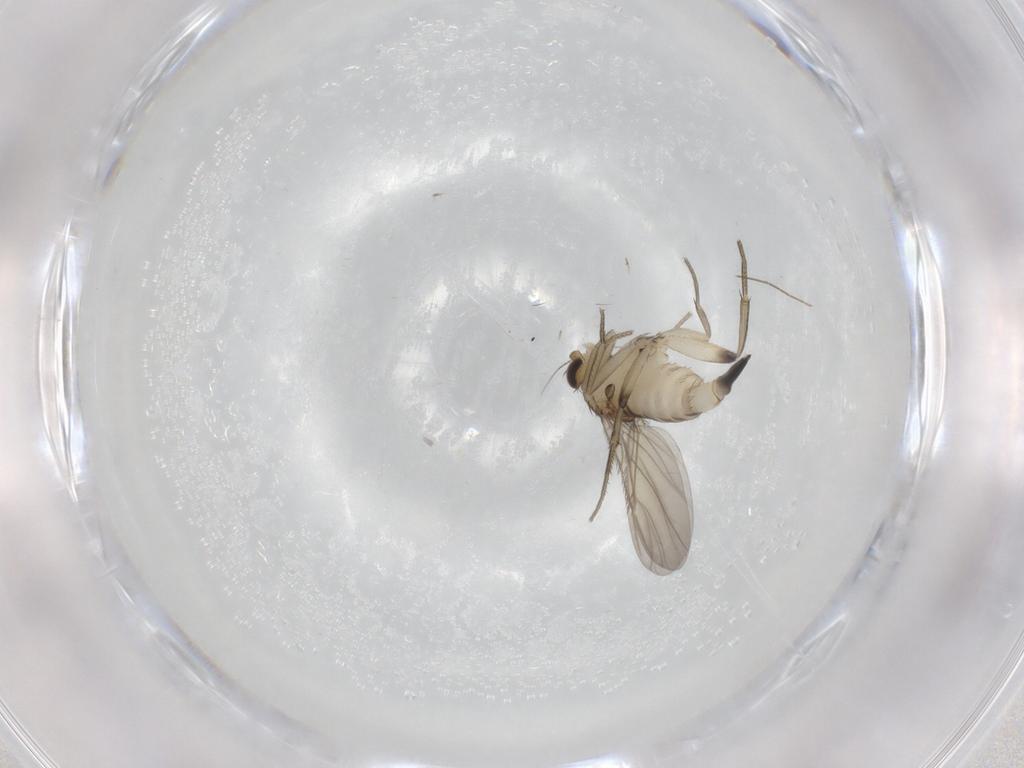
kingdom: Animalia
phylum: Arthropoda
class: Insecta
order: Diptera
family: Phoridae
